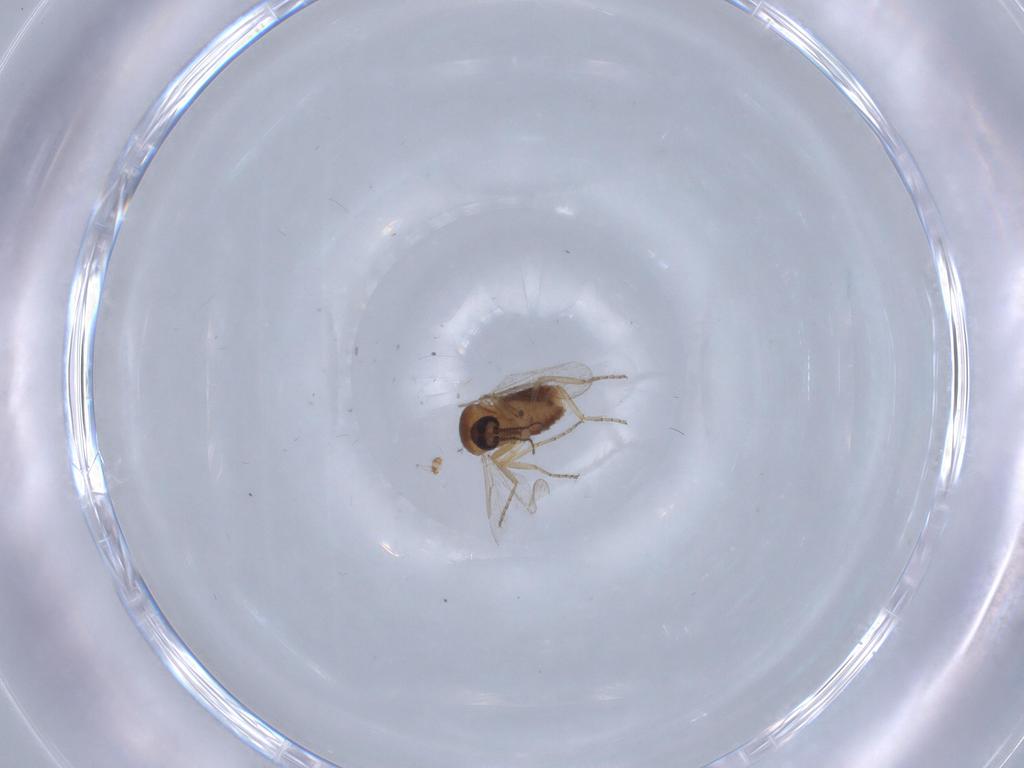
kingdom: Animalia
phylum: Arthropoda
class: Insecta
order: Diptera
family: Ceratopogonidae
